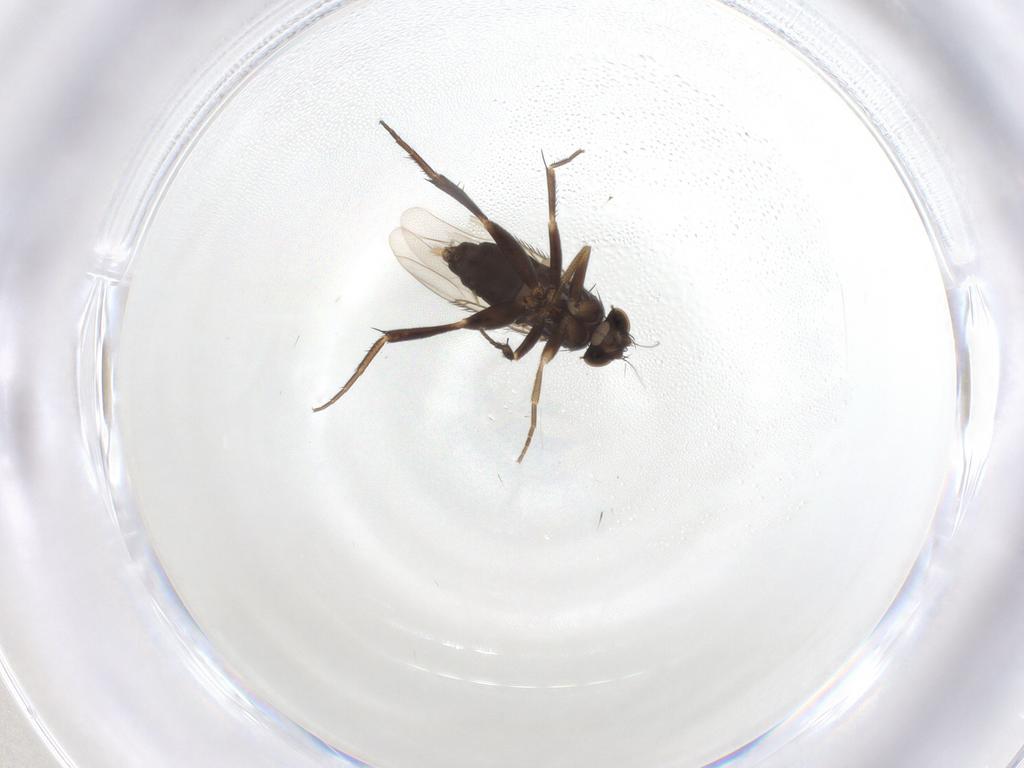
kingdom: Animalia
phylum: Arthropoda
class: Insecta
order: Diptera
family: Phoridae
